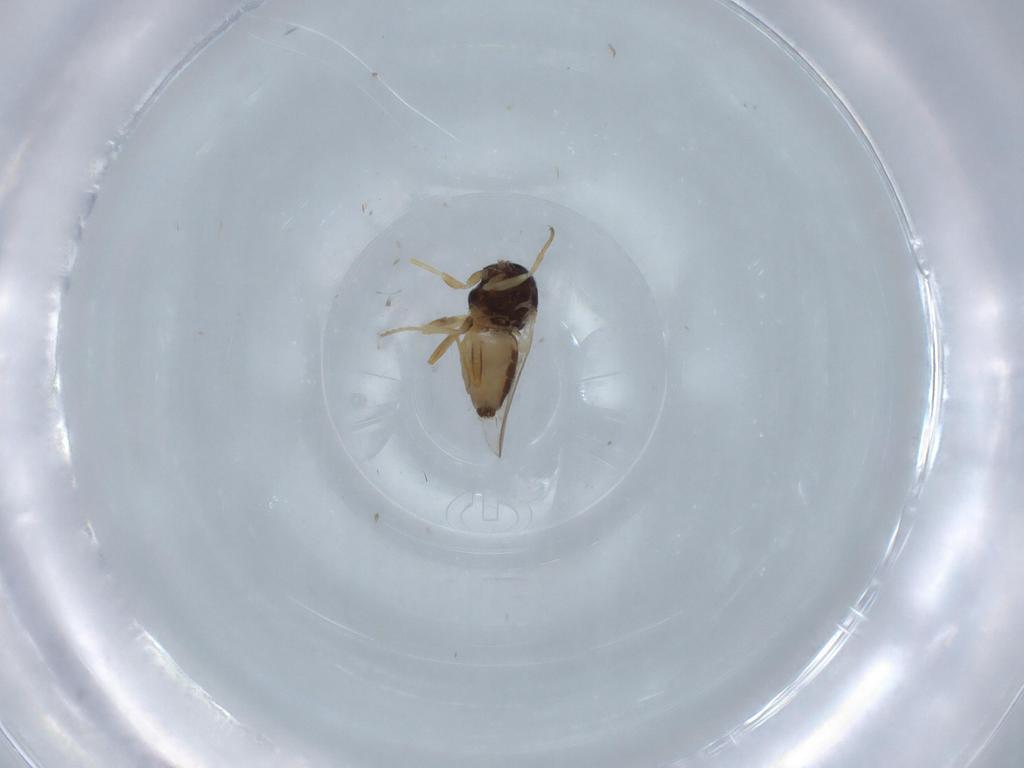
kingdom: Animalia
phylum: Arthropoda
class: Insecta
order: Diptera
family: Chloropidae
